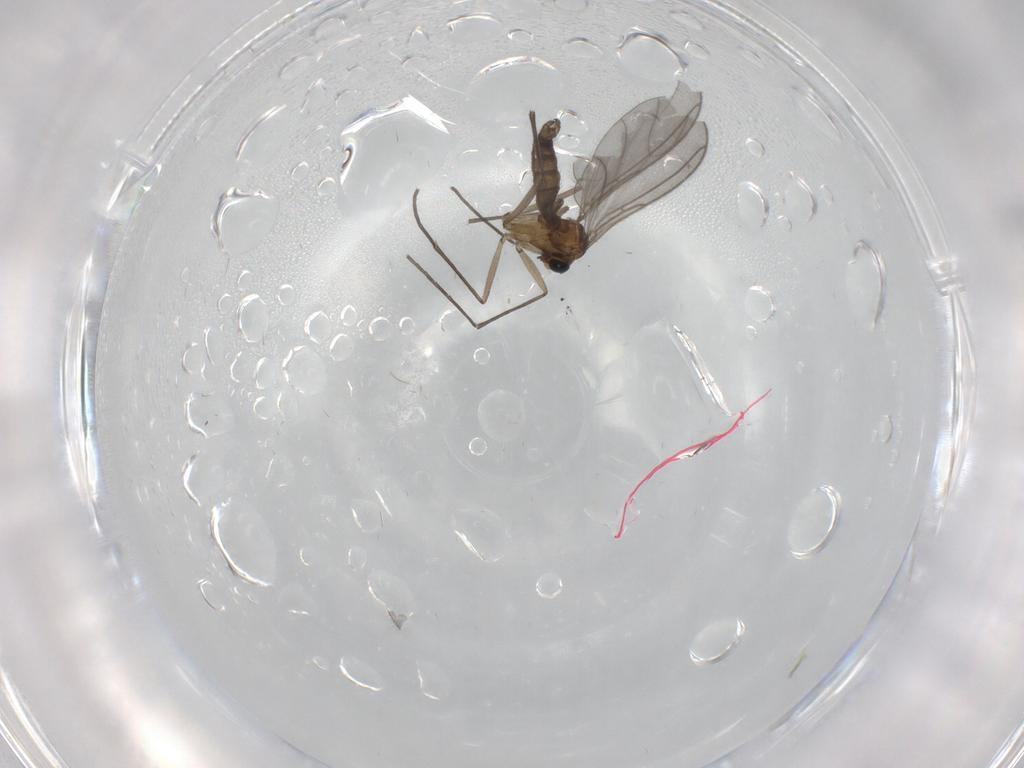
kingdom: Animalia
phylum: Arthropoda
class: Insecta
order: Diptera
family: Sciaridae
